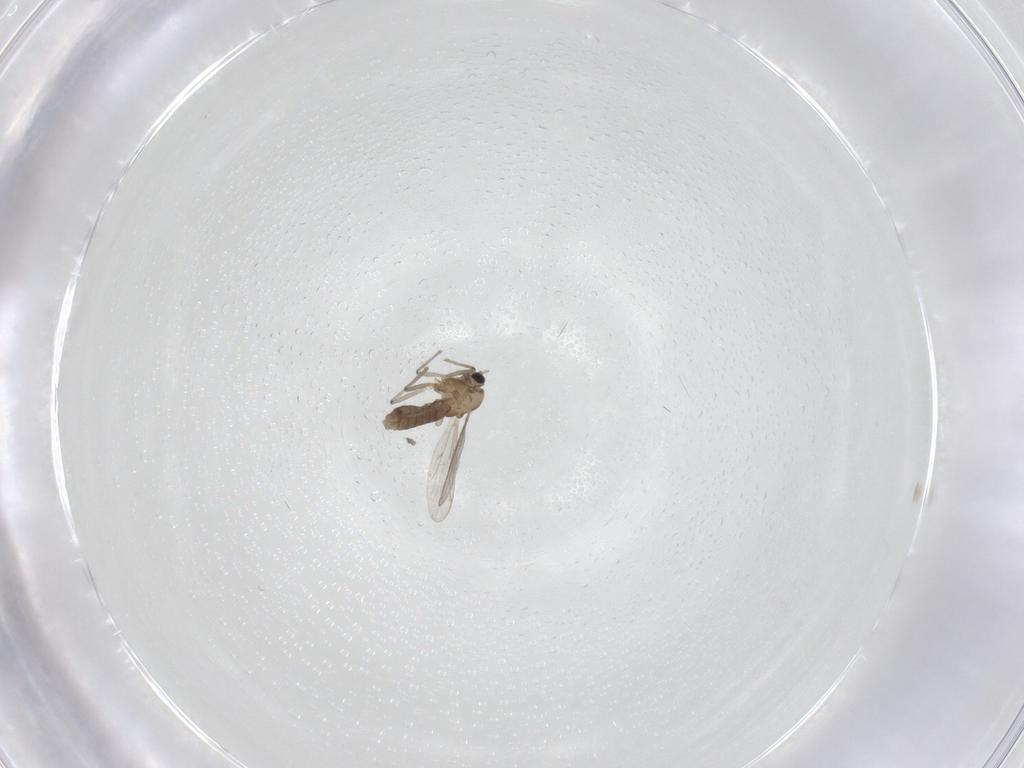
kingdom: Animalia
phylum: Arthropoda
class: Insecta
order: Diptera
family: Chironomidae
